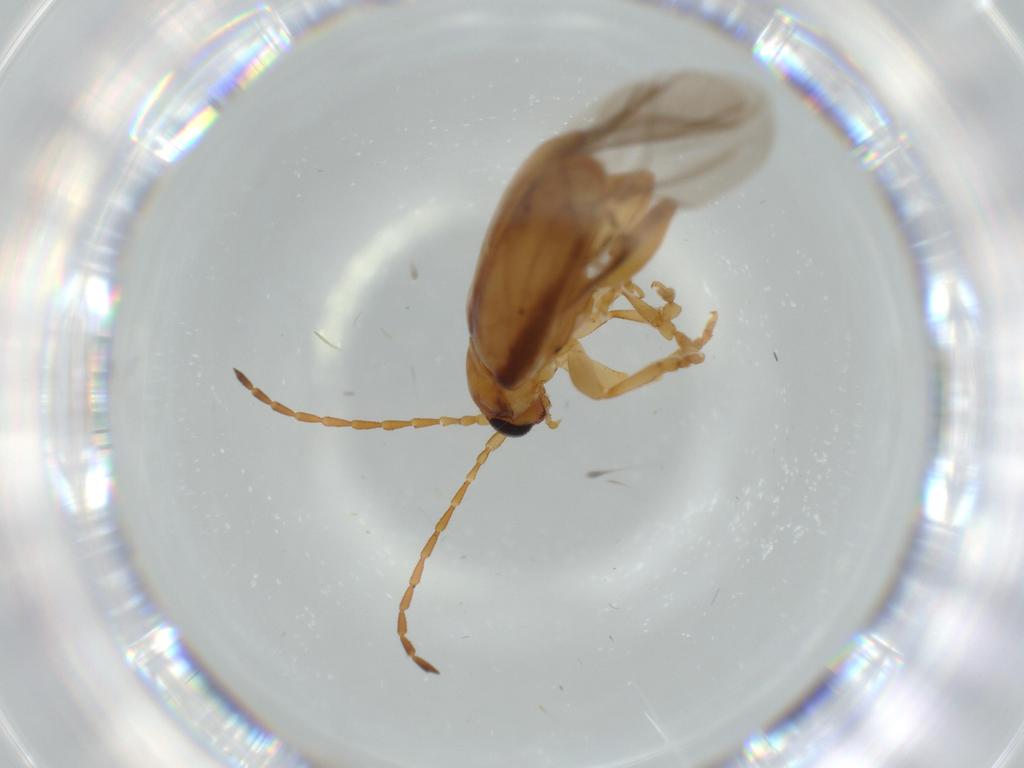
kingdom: Animalia
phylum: Arthropoda
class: Insecta
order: Coleoptera
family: Chrysomelidae
